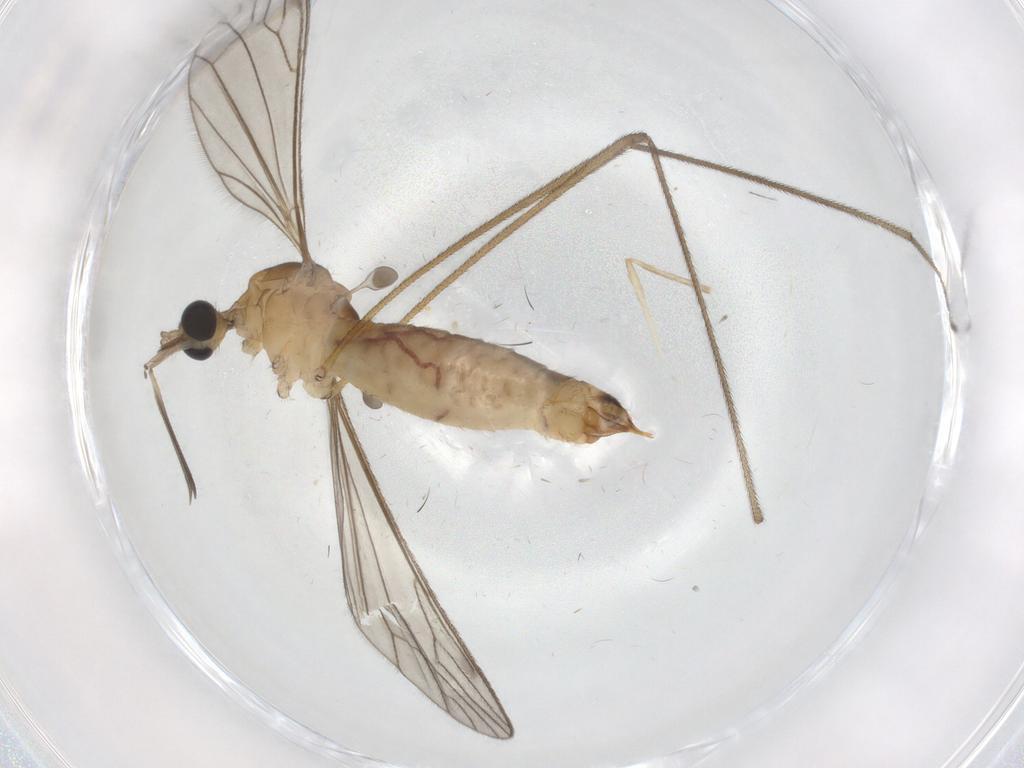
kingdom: Animalia
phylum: Arthropoda
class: Insecta
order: Diptera
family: Limoniidae
